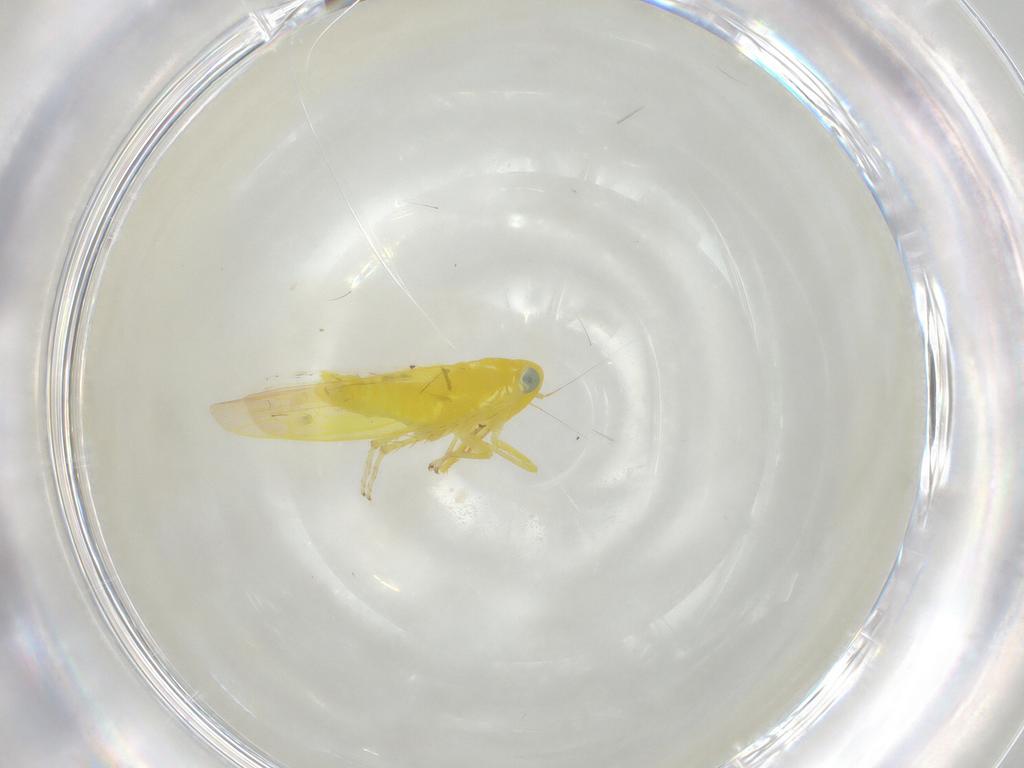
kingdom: Animalia
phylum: Arthropoda
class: Insecta
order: Hemiptera
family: Cicadellidae
